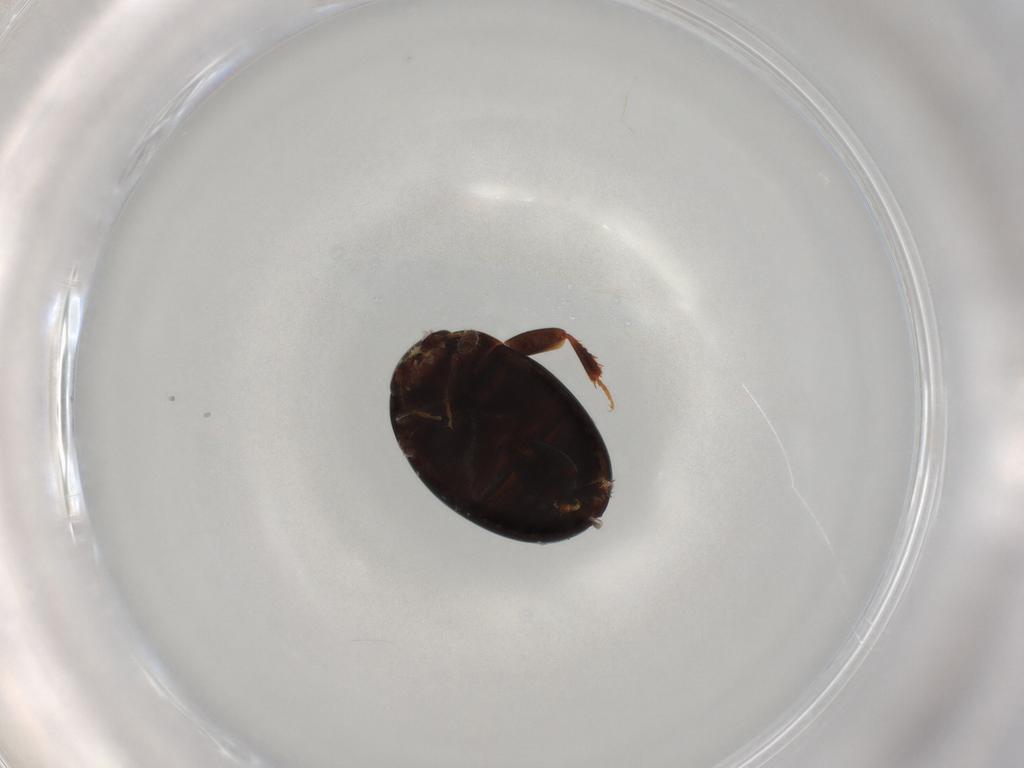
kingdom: Animalia
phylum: Arthropoda
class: Insecta
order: Coleoptera
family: Leiodidae
